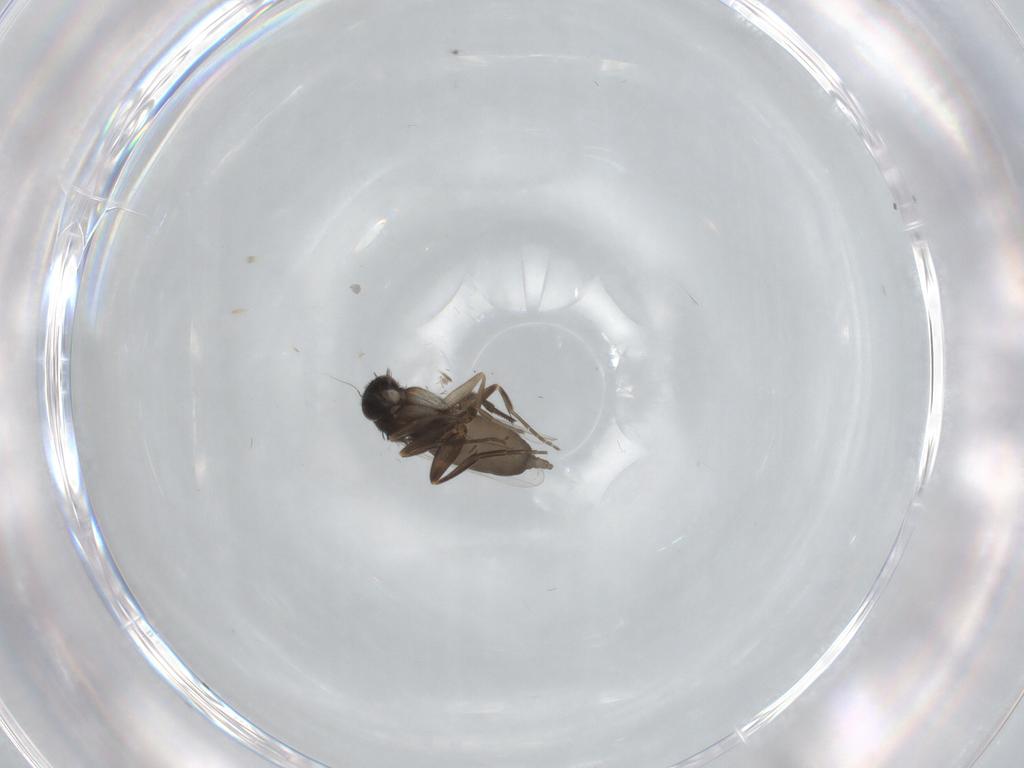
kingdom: Animalia
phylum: Arthropoda
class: Insecta
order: Diptera
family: Phoridae
